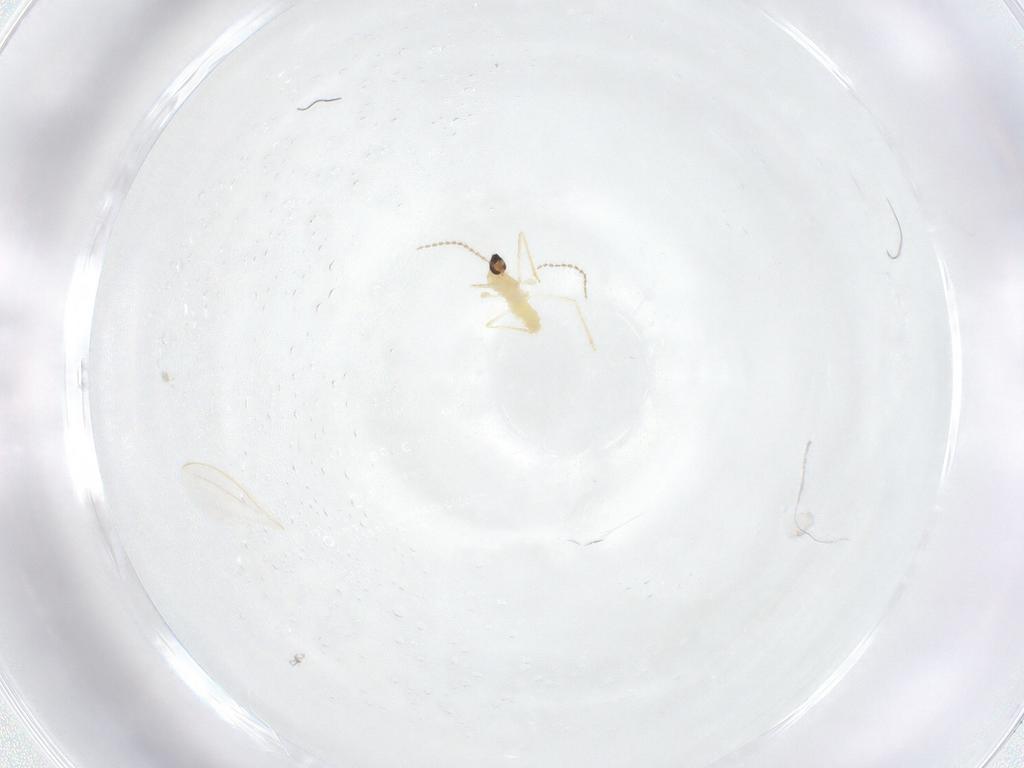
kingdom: Animalia
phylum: Arthropoda
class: Insecta
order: Diptera
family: Cecidomyiidae
